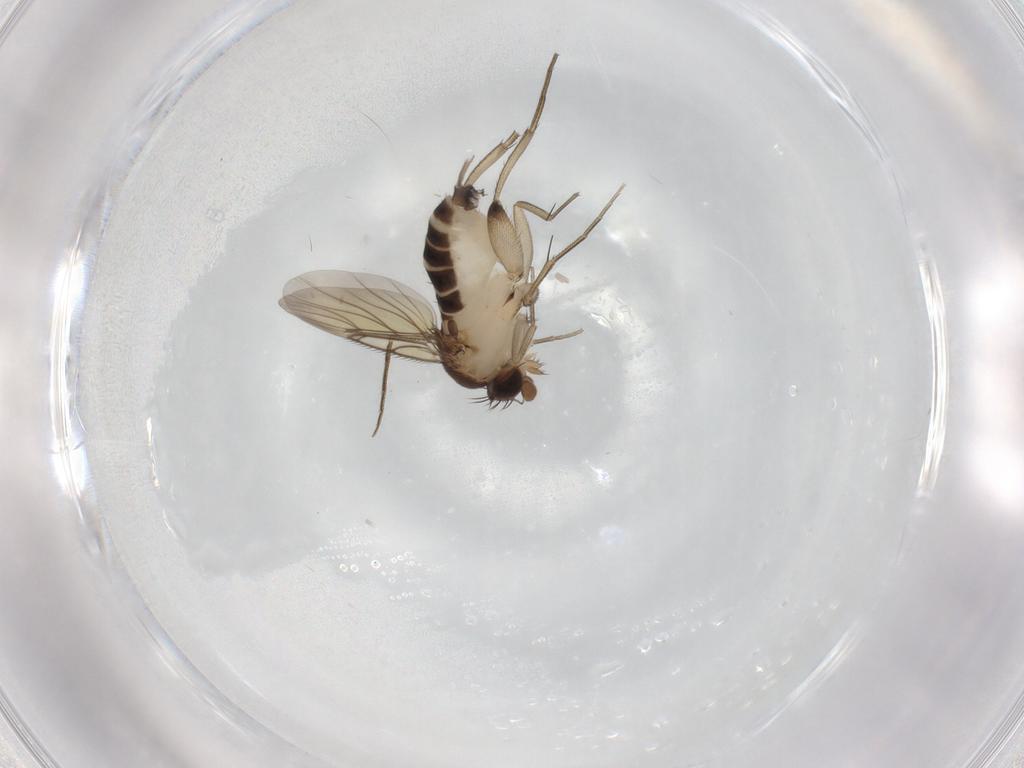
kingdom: Animalia
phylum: Arthropoda
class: Insecta
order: Diptera
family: Phoridae
